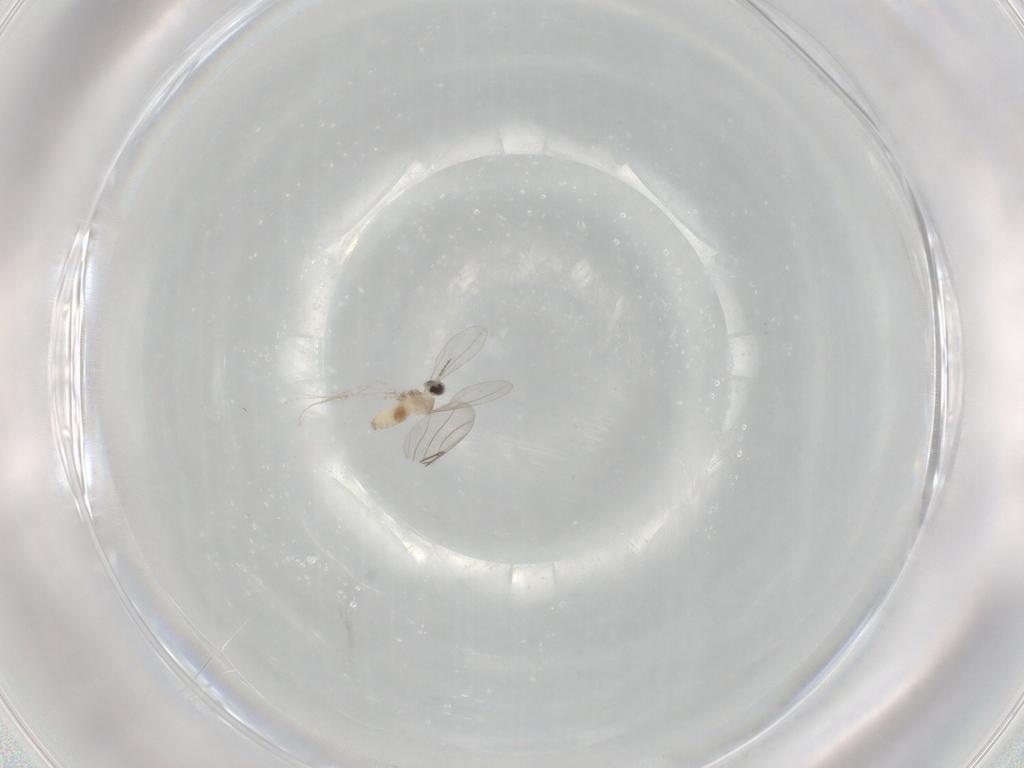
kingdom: Animalia
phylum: Arthropoda
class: Insecta
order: Diptera
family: Cecidomyiidae
